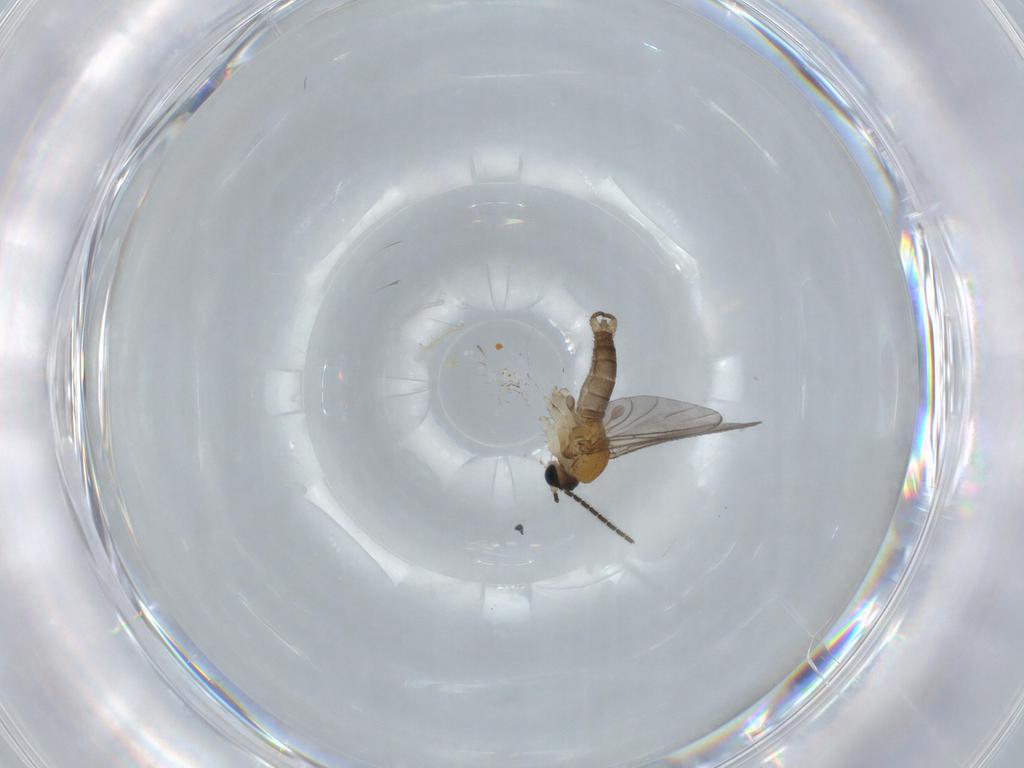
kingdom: Animalia
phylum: Arthropoda
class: Insecta
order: Diptera
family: Sciaridae
